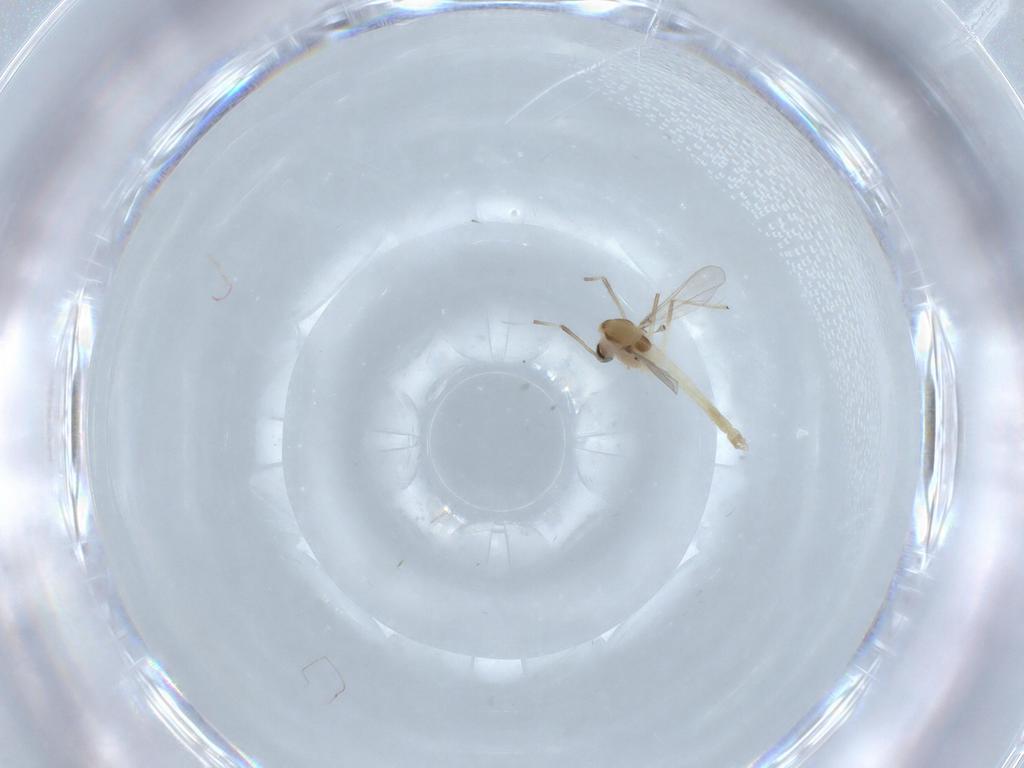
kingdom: Animalia
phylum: Arthropoda
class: Insecta
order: Diptera
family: Chironomidae
